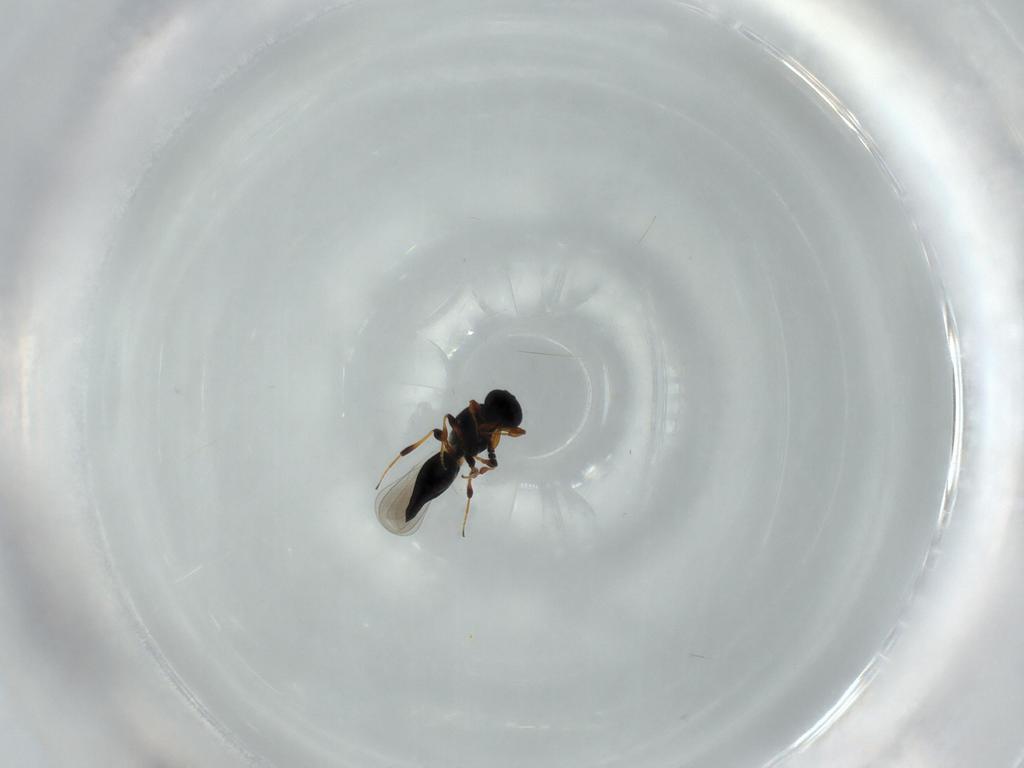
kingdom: Animalia
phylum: Arthropoda
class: Insecta
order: Hymenoptera
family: Platygastridae
